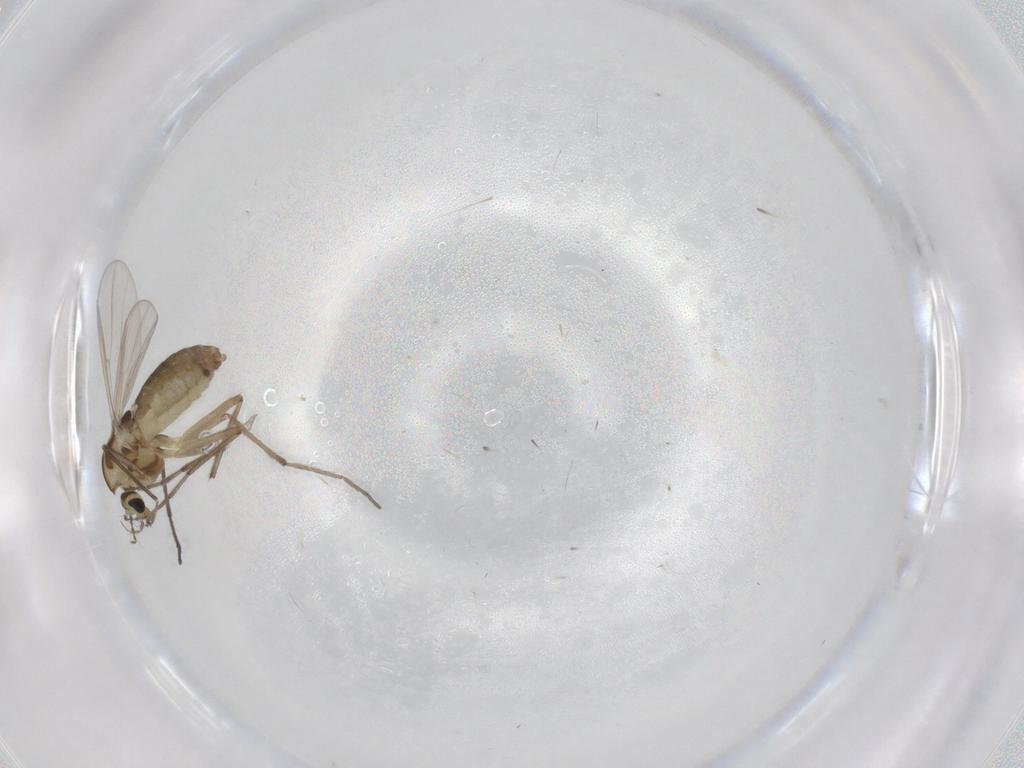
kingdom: Animalia
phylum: Arthropoda
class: Insecta
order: Diptera
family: Chironomidae
